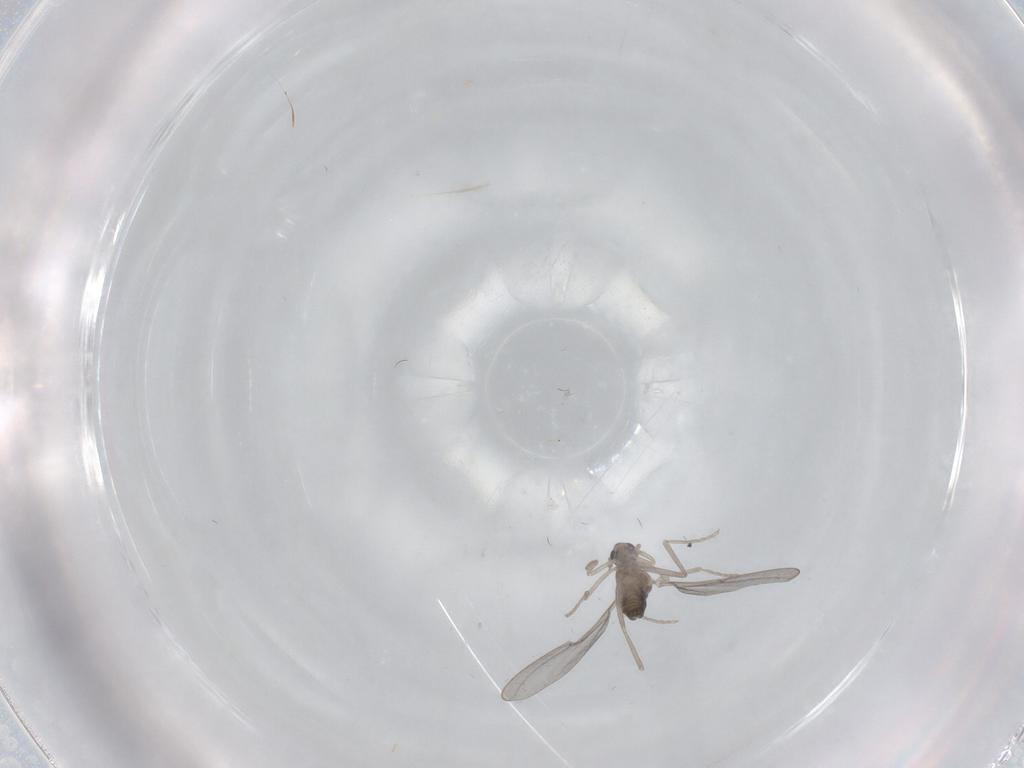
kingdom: Animalia
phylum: Arthropoda
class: Insecta
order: Diptera
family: Cecidomyiidae
